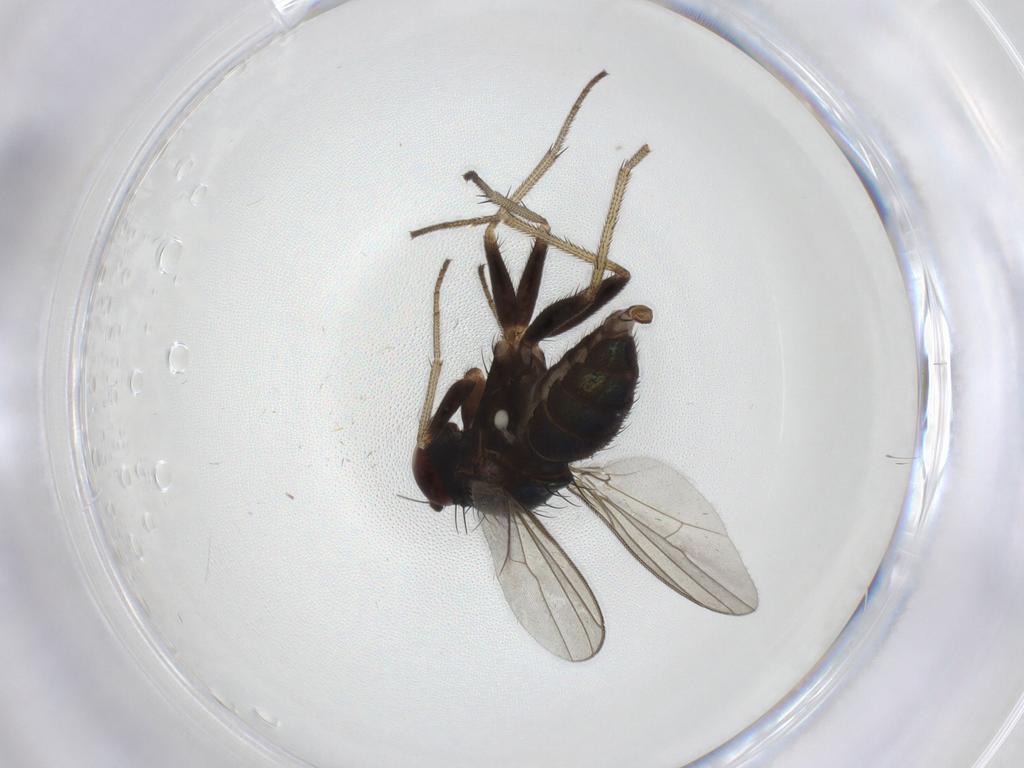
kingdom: Animalia
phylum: Arthropoda
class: Insecta
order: Diptera
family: Dolichopodidae
